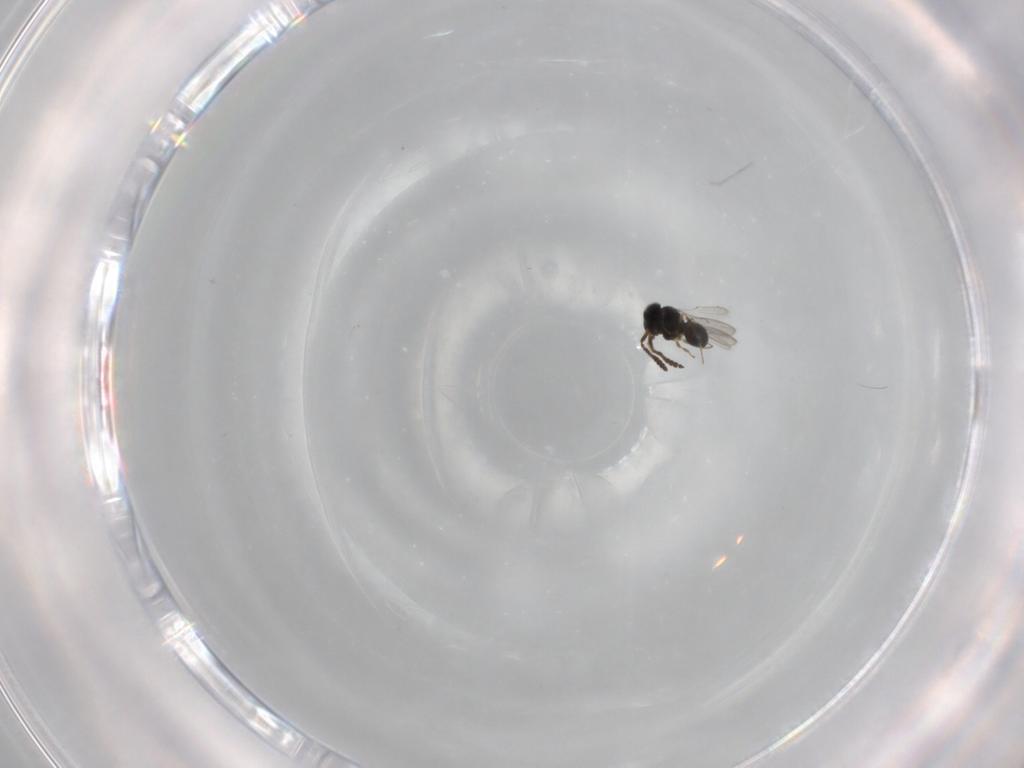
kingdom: Animalia
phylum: Arthropoda
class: Insecta
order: Hymenoptera
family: Scelionidae
